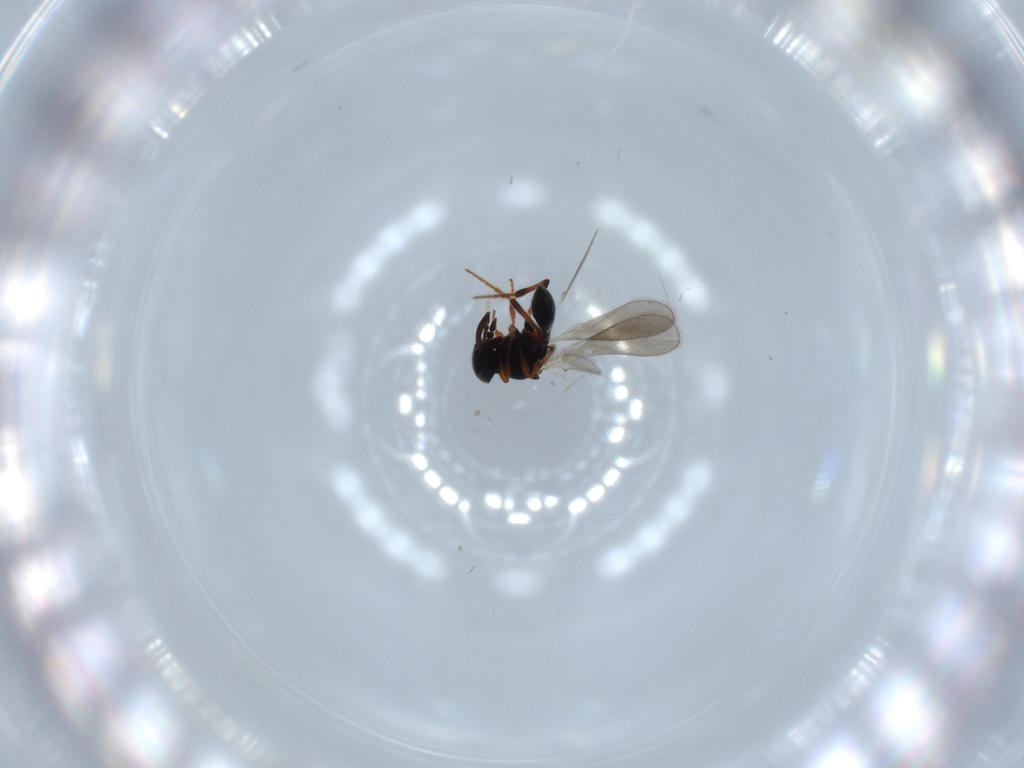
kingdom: Animalia
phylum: Arthropoda
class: Insecta
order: Hymenoptera
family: Platygastridae
